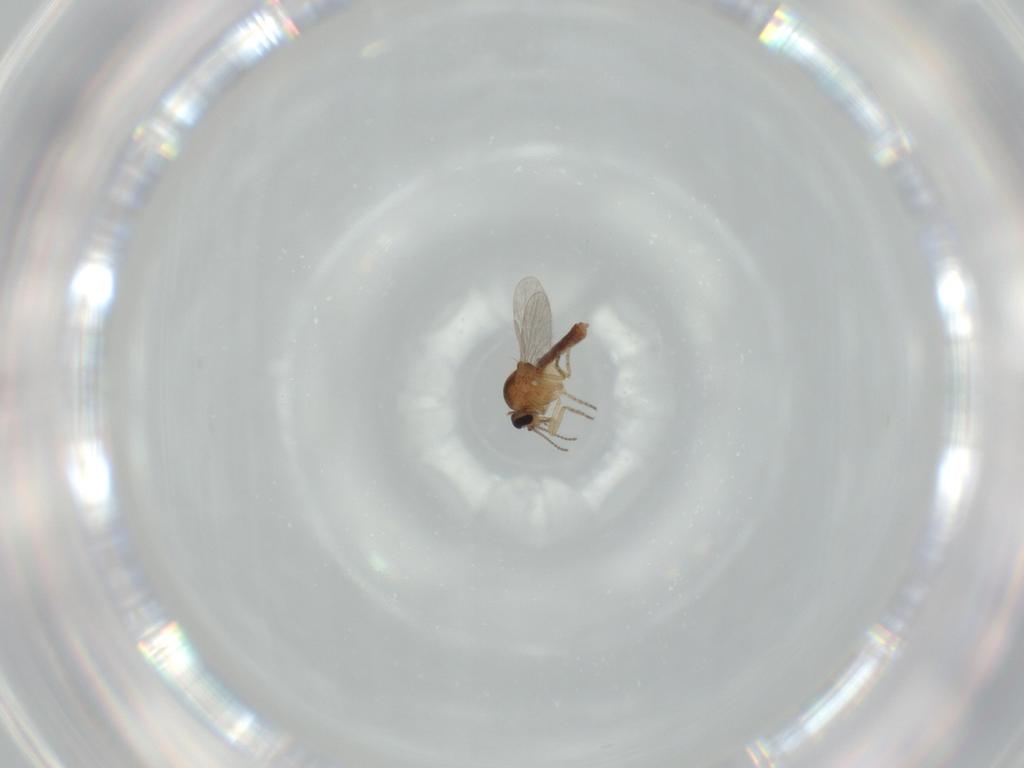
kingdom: Animalia
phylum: Arthropoda
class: Insecta
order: Diptera
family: Ceratopogonidae
